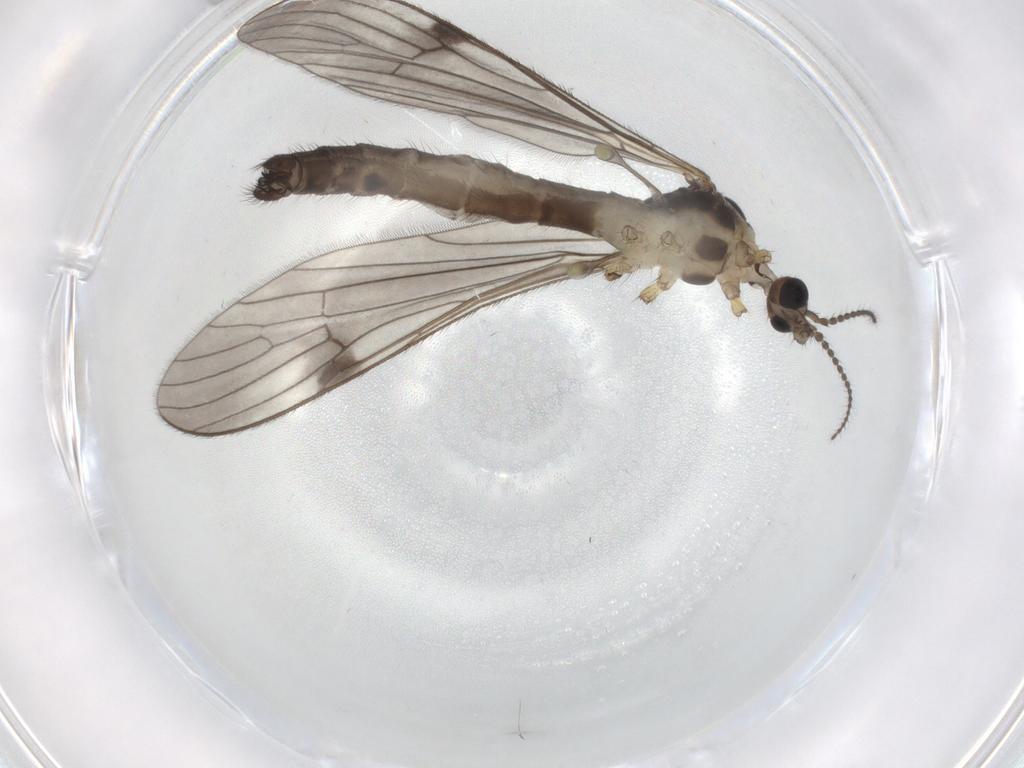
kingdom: Animalia
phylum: Arthropoda
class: Insecta
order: Diptera
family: Limoniidae
